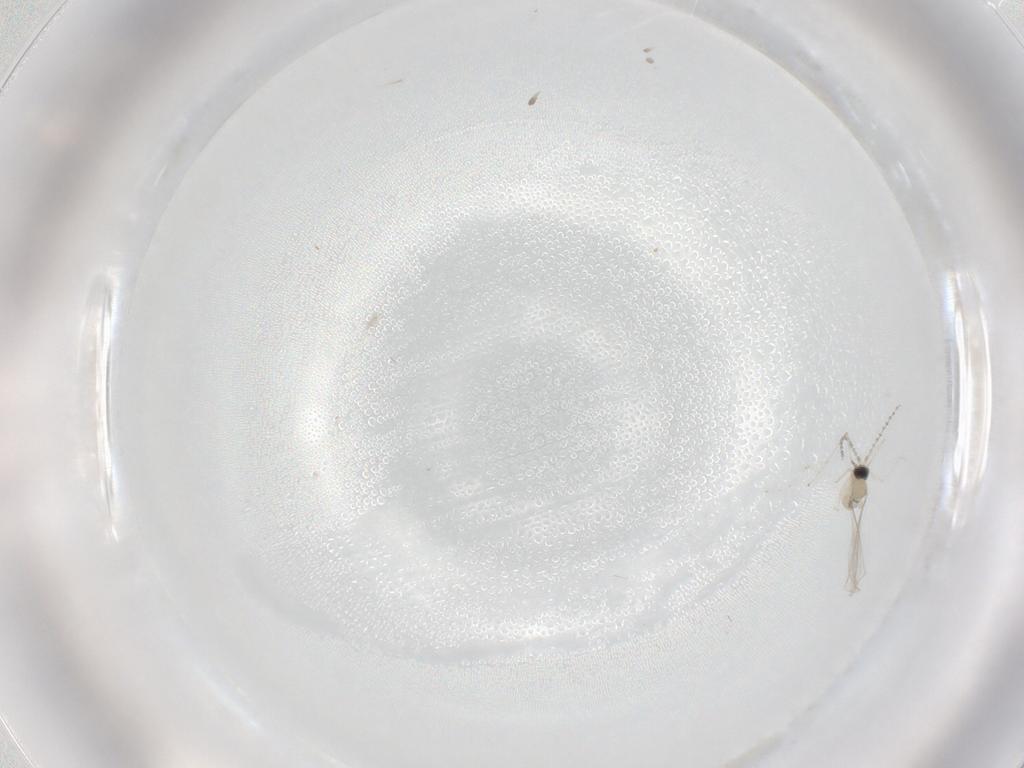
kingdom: Animalia
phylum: Arthropoda
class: Insecta
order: Diptera
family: Cecidomyiidae
